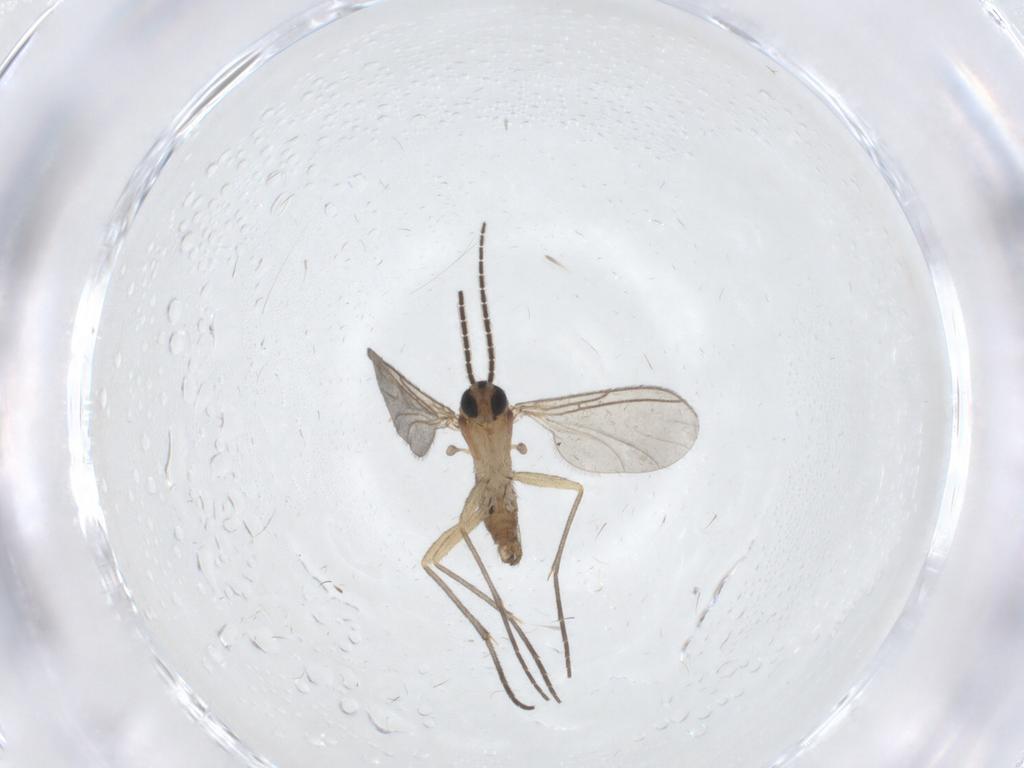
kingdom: Animalia
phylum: Arthropoda
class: Insecta
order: Diptera
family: Sciaridae
